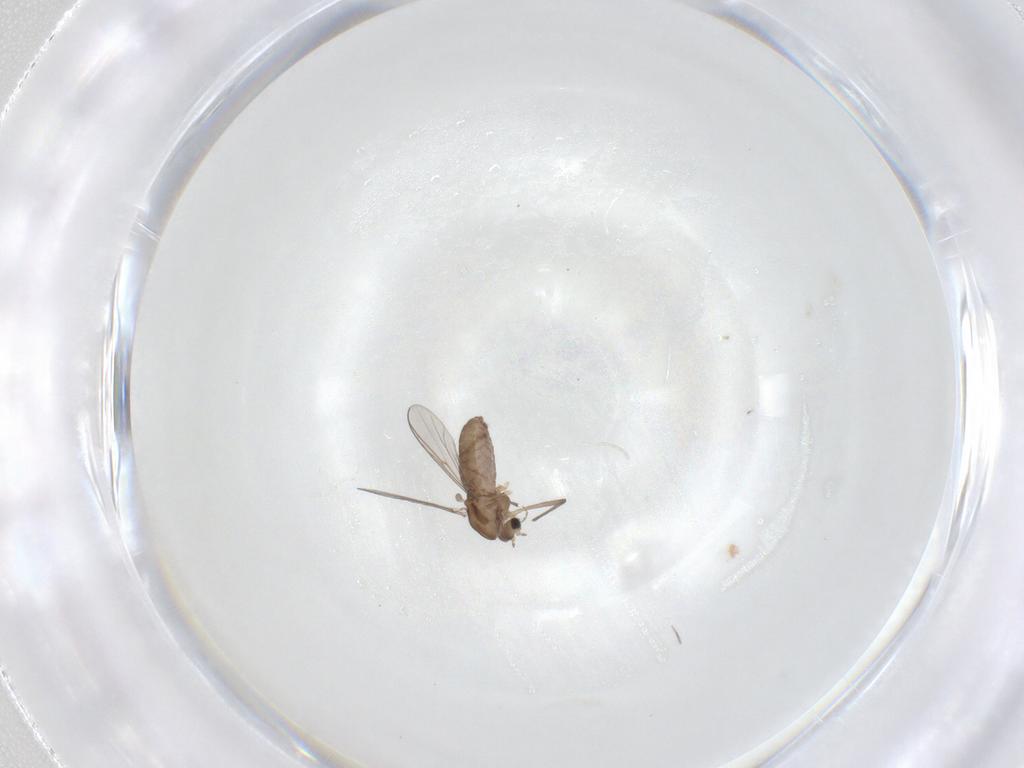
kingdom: Animalia
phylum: Arthropoda
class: Insecta
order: Diptera
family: Chironomidae
